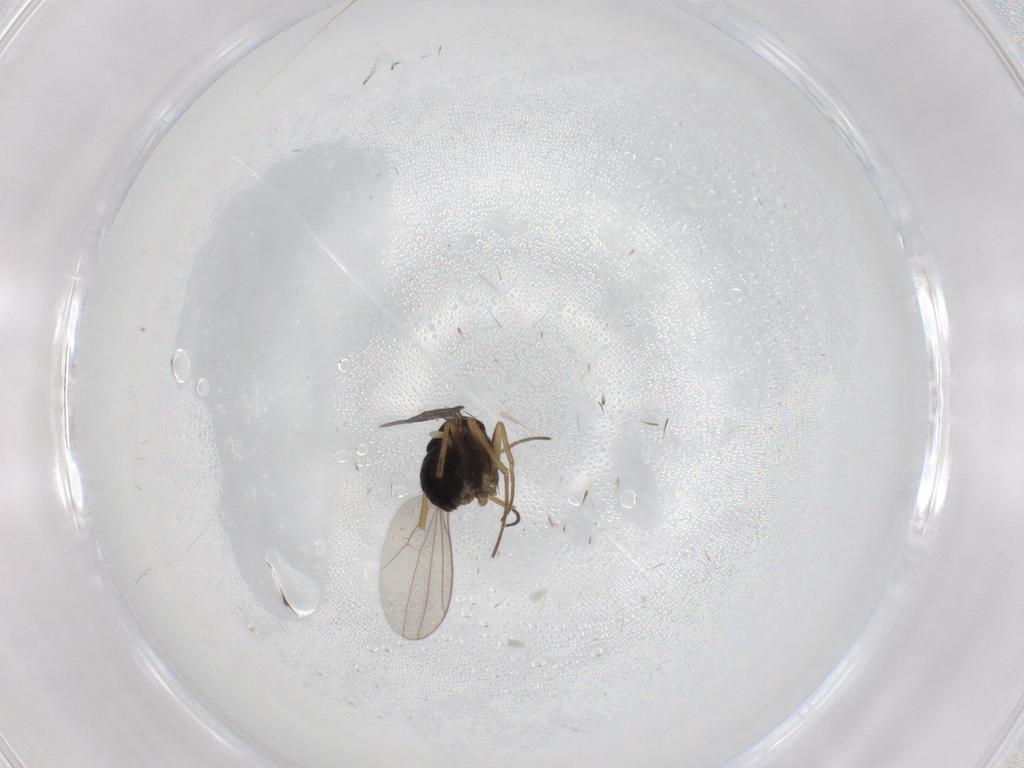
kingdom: Animalia
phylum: Arthropoda
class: Insecta
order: Diptera
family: Dolichopodidae
